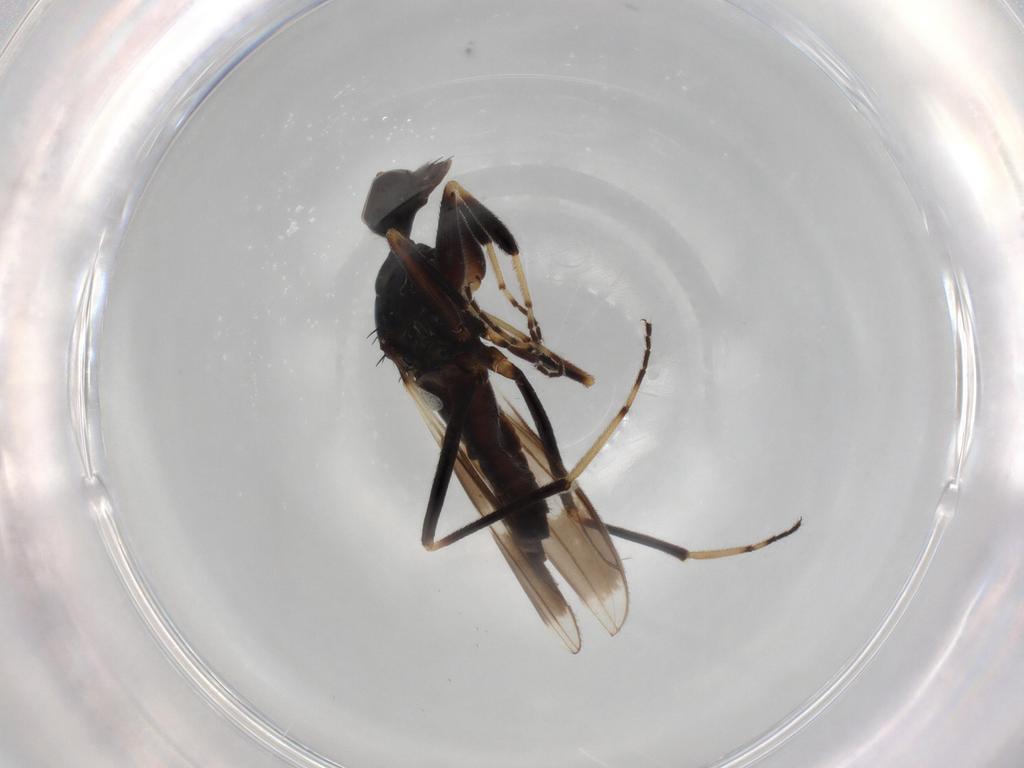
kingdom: Animalia
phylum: Arthropoda
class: Insecta
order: Diptera
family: Hybotidae
